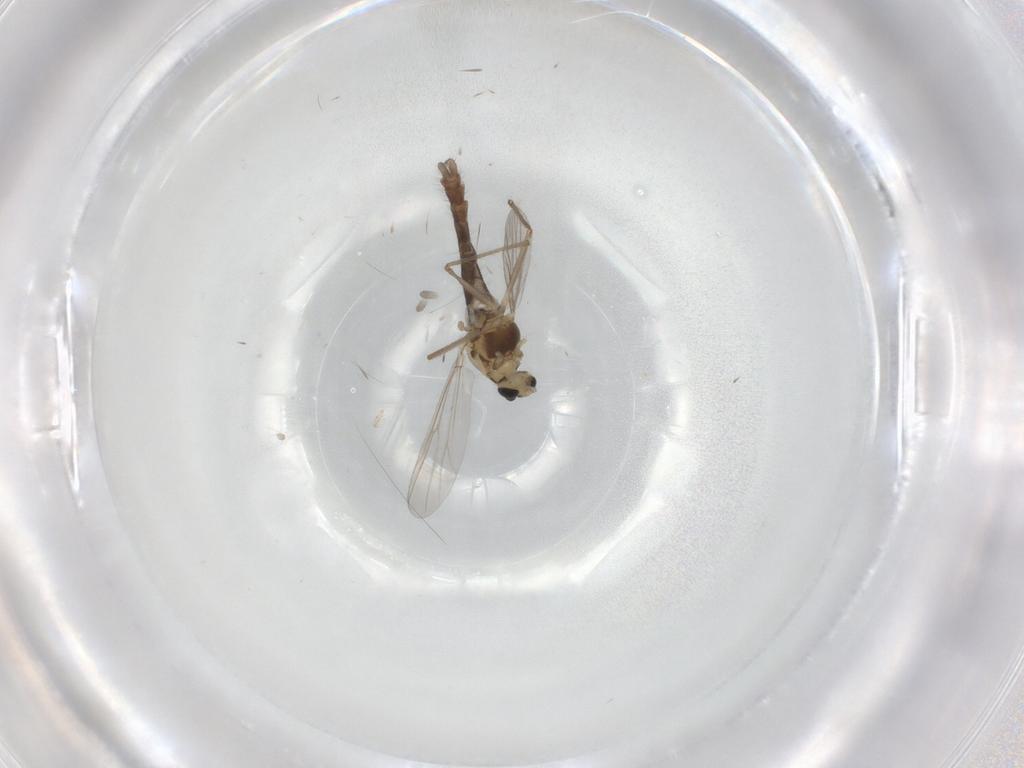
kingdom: Animalia
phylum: Arthropoda
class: Insecta
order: Diptera
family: Chironomidae
